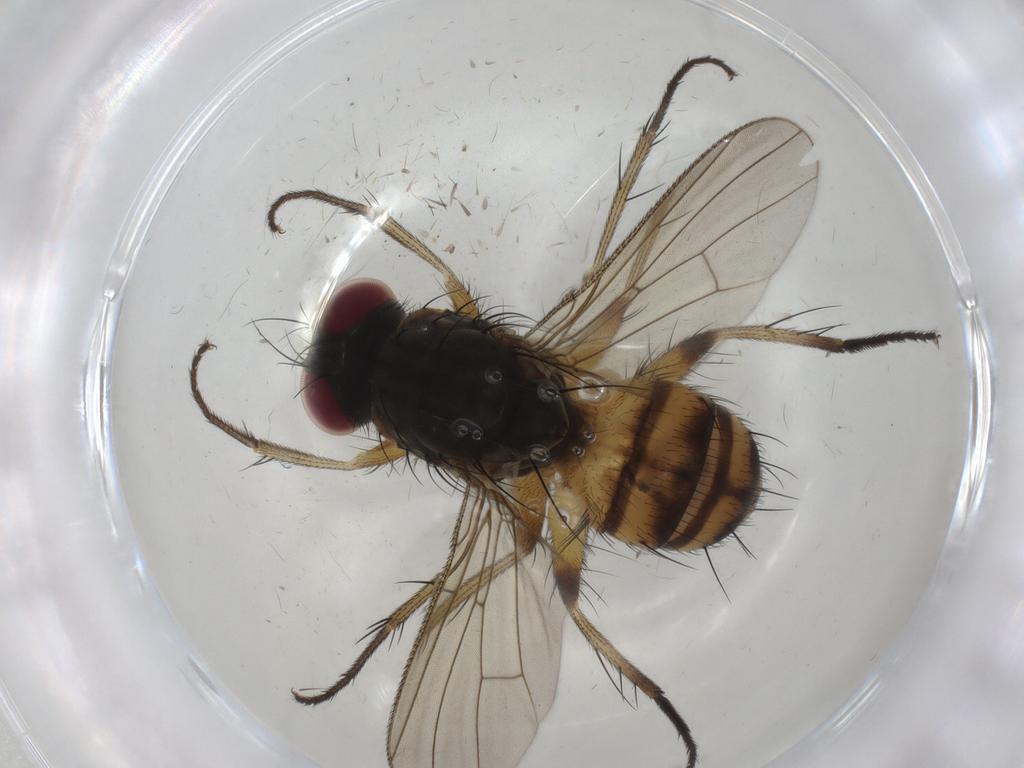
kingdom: Animalia
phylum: Arthropoda
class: Insecta
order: Diptera
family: Muscidae
